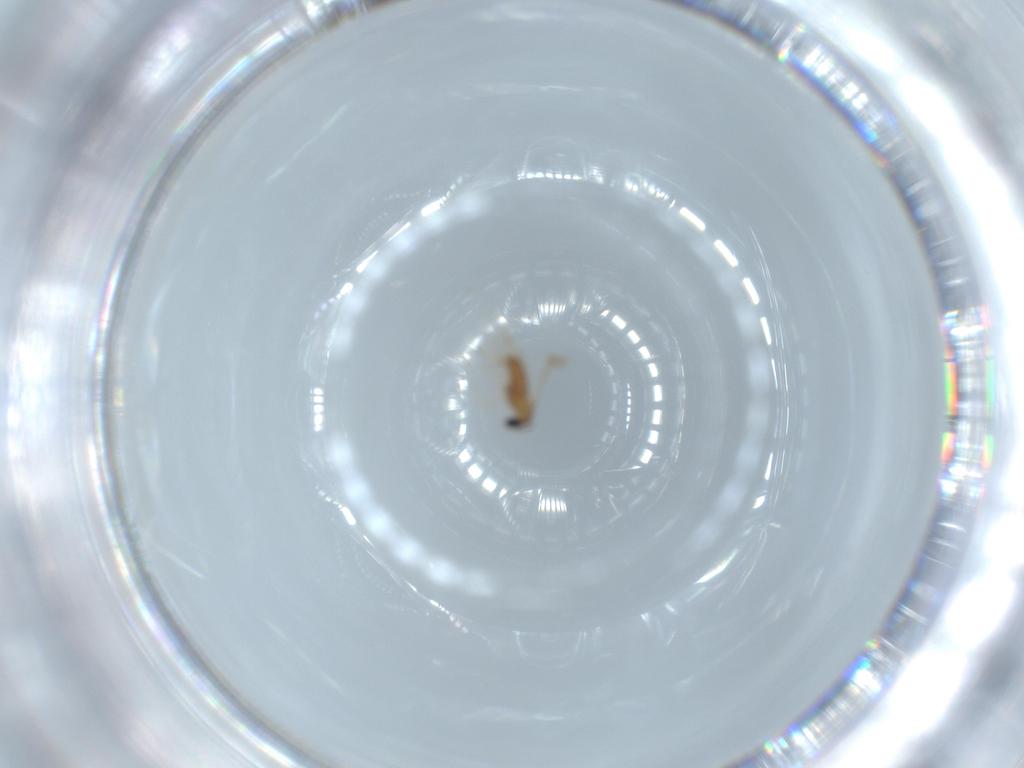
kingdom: Animalia
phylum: Arthropoda
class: Insecta
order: Diptera
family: Cecidomyiidae
